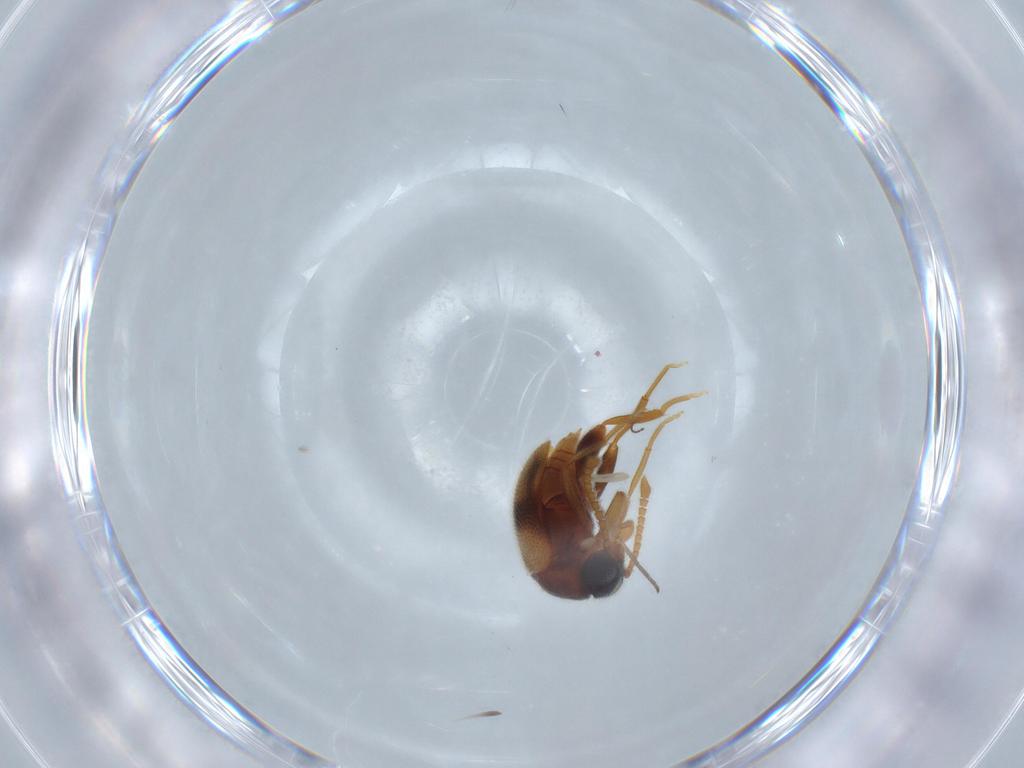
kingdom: Animalia
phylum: Arthropoda
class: Insecta
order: Coleoptera
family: Aderidae
